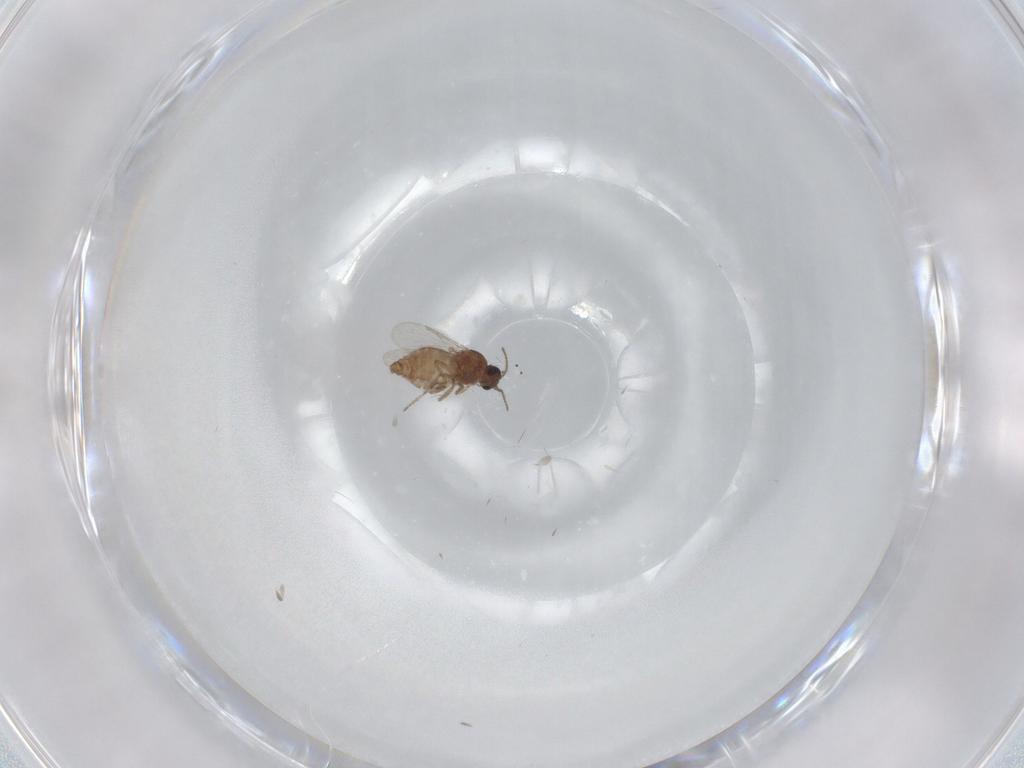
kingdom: Animalia
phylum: Arthropoda
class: Insecta
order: Diptera
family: Ceratopogonidae
